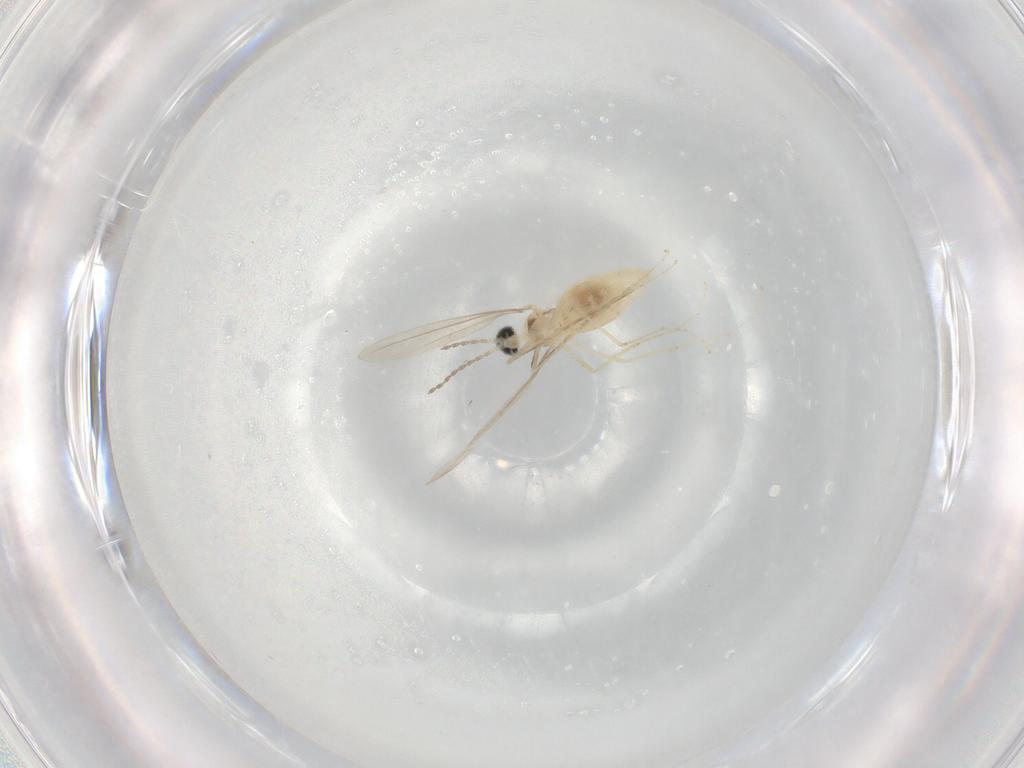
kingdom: Animalia
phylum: Arthropoda
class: Insecta
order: Diptera
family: Cecidomyiidae
